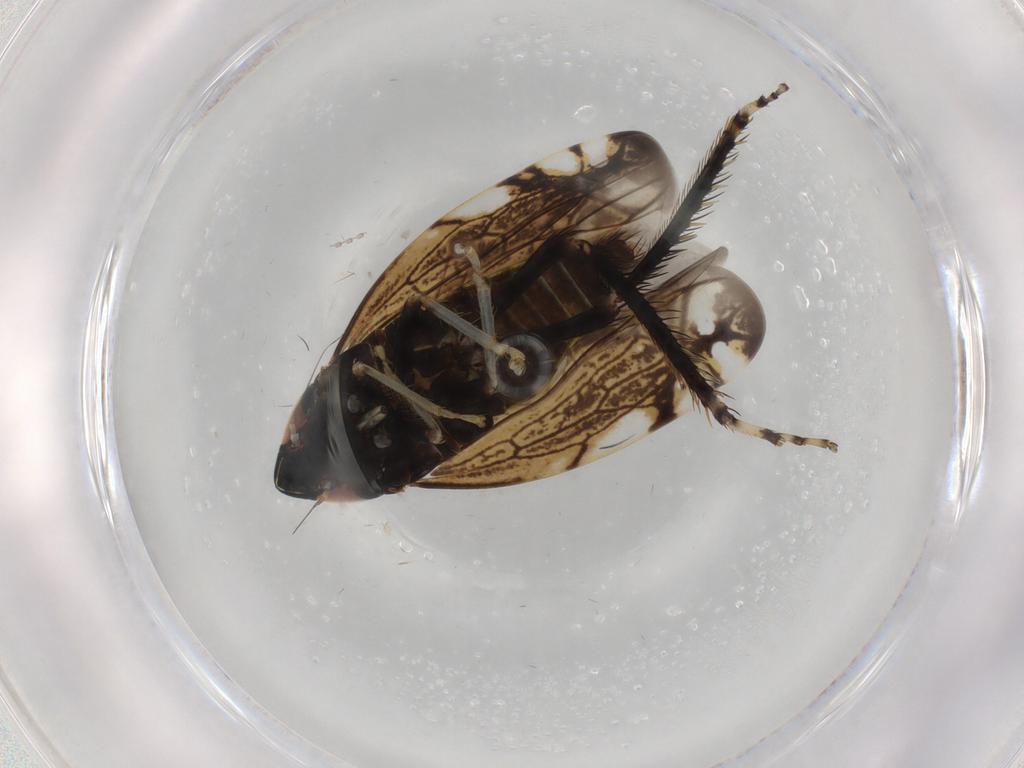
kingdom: Animalia
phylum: Arthropoda
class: Insecta
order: Hemiptera
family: Cicadellidae
